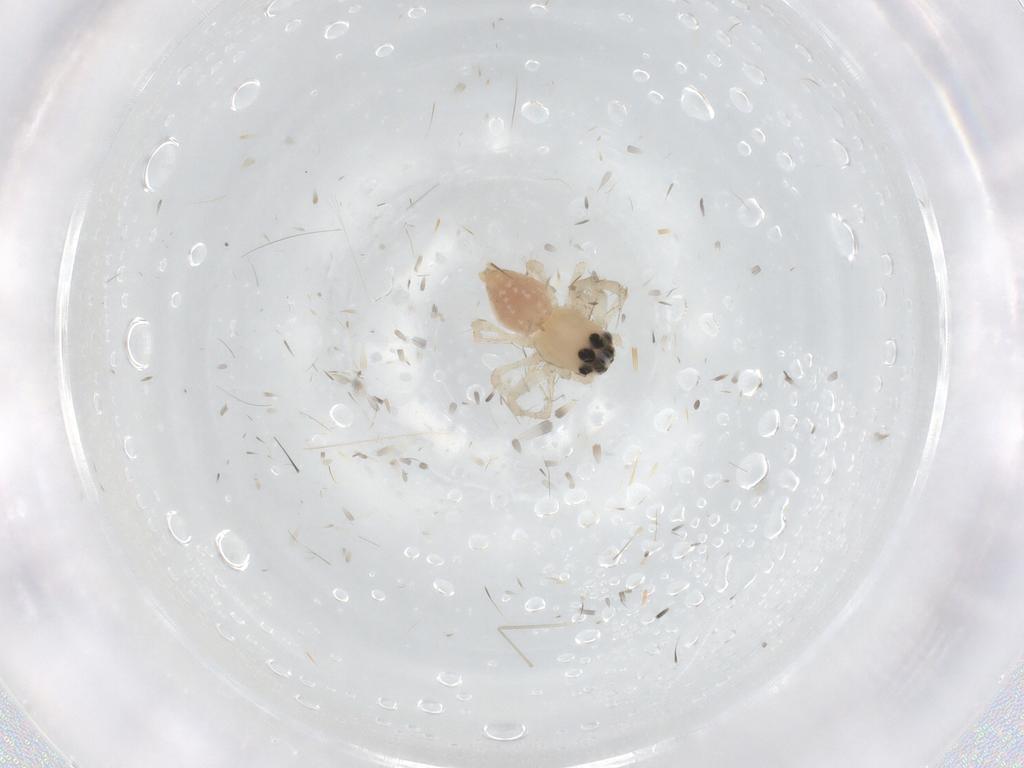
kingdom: Animalia
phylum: Arthropoda
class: Arachnida
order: Araneae
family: Oxyopidae
